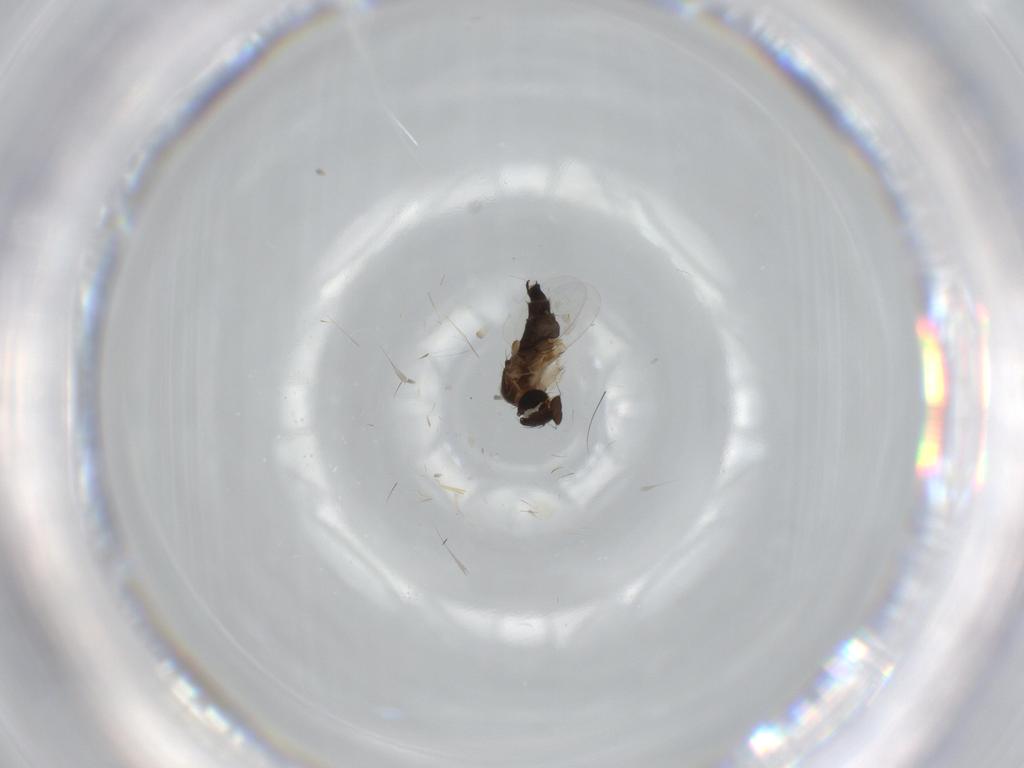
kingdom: Animalia
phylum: Arthropoda
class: Insecta
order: Diptera
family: Phoridae
